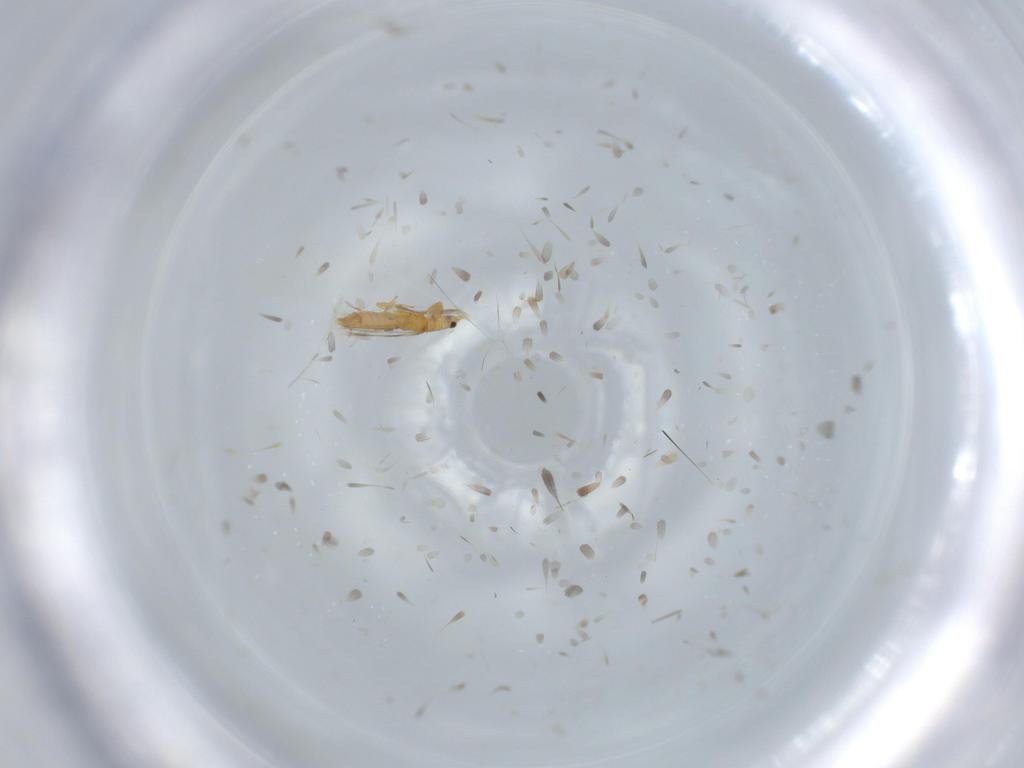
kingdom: Animalia
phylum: Arthropoda
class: Insecta
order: Thysanoptera
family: Thripidae
